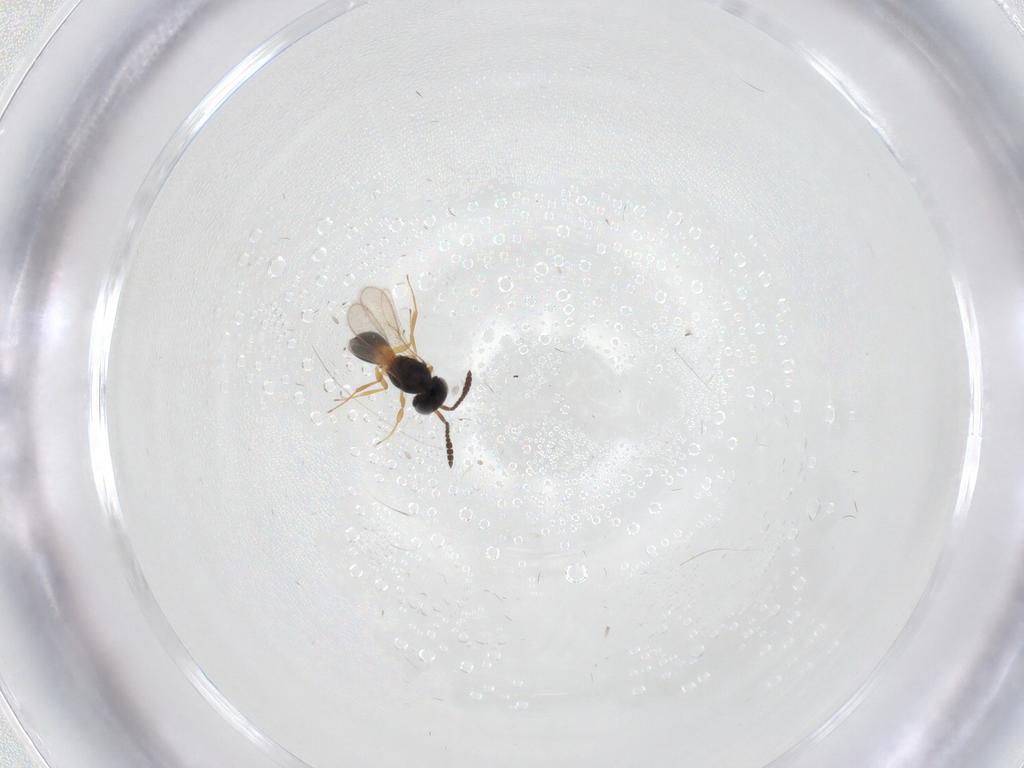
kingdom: Animalia
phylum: Arthropoda
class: Insecta
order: Hymenoptera
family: Scelionidae
